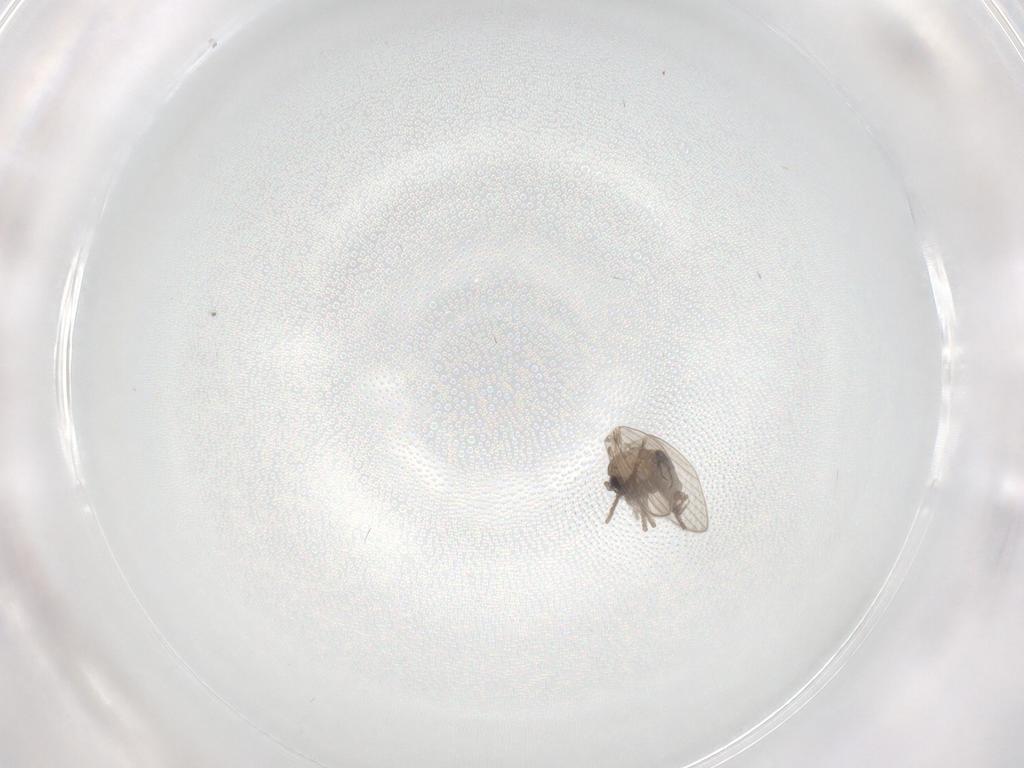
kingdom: Animalia
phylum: Arthropoda
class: Insecta
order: Diptera
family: Psychodidae
